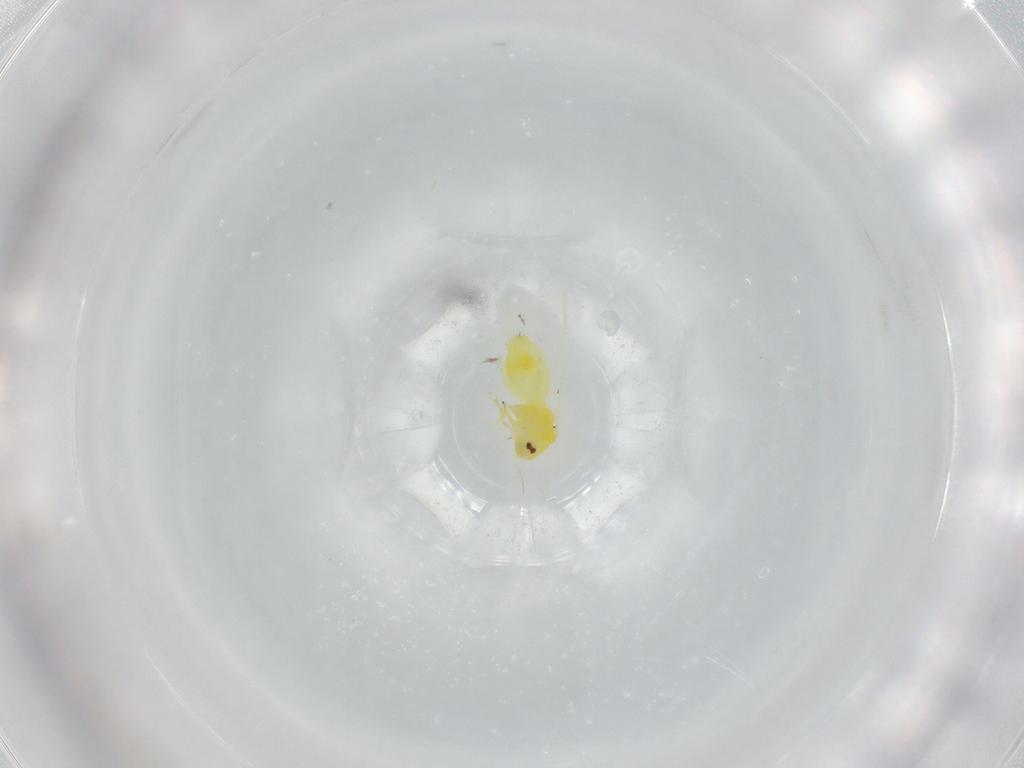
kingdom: Animalia
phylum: Arthropoda
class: Insecta
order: Hemiptera
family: Aleyrodidae
